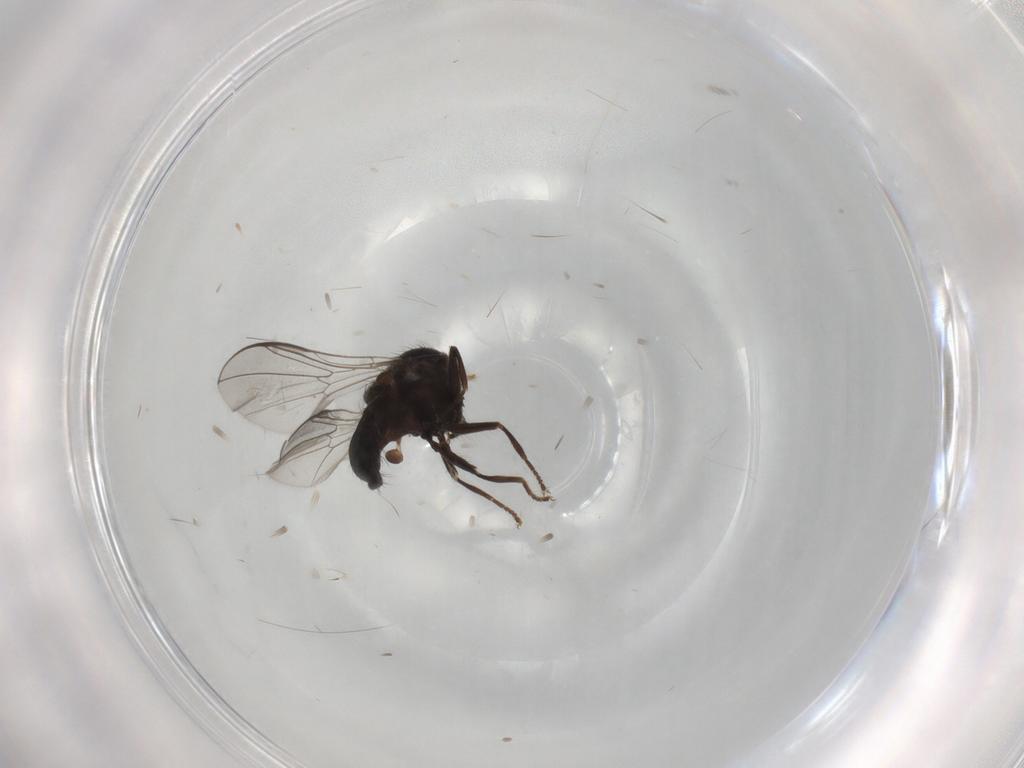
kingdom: Animalia
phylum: Arthropoda
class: Insecta
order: Diptera
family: Pipunculidae
